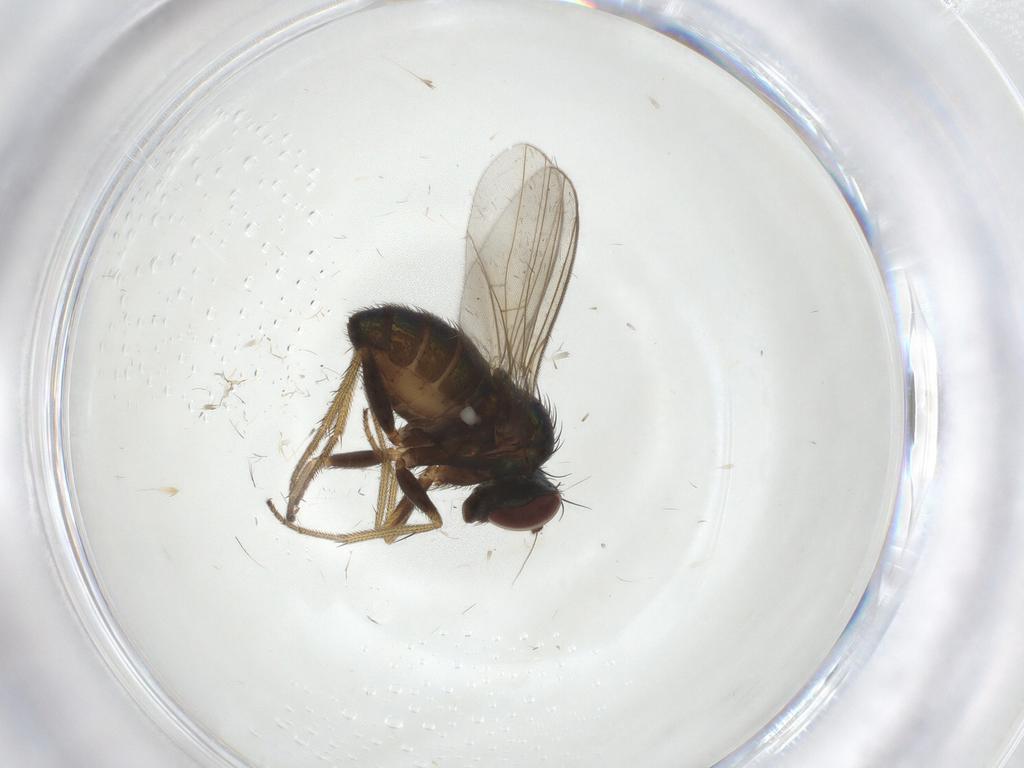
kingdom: Animalia
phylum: Arthropoda
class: Insecta
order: Diptera
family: Dolichopodidae
